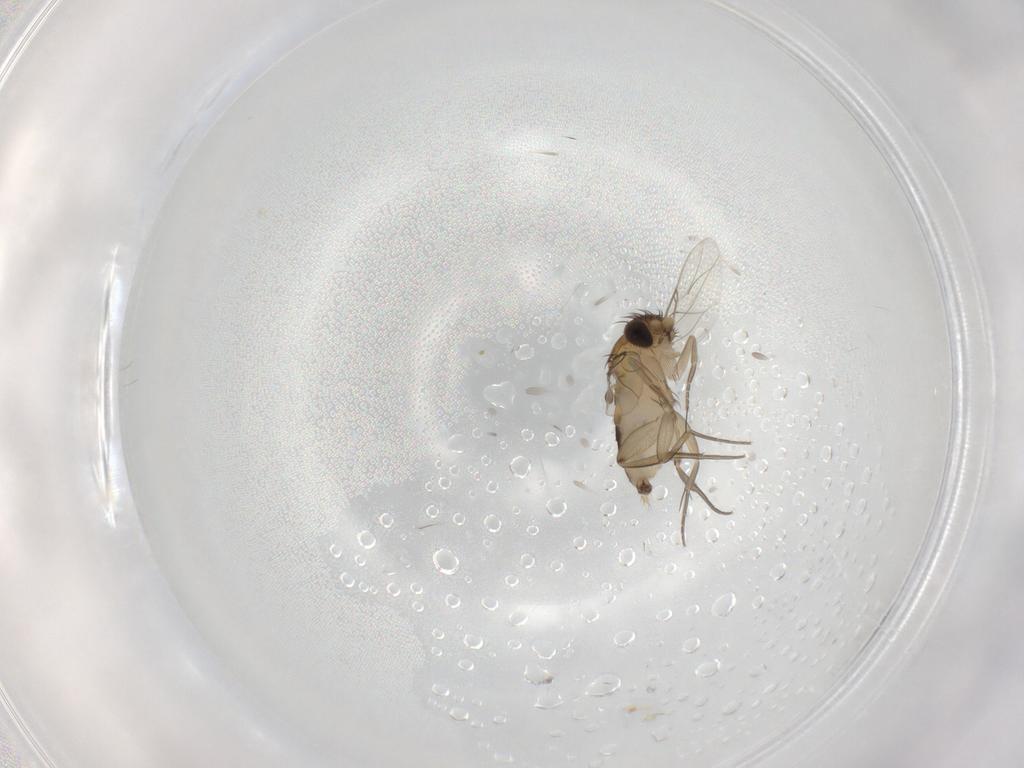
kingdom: Animalia
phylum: Arthropoda
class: Insecta
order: Diptera
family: Phoridae
